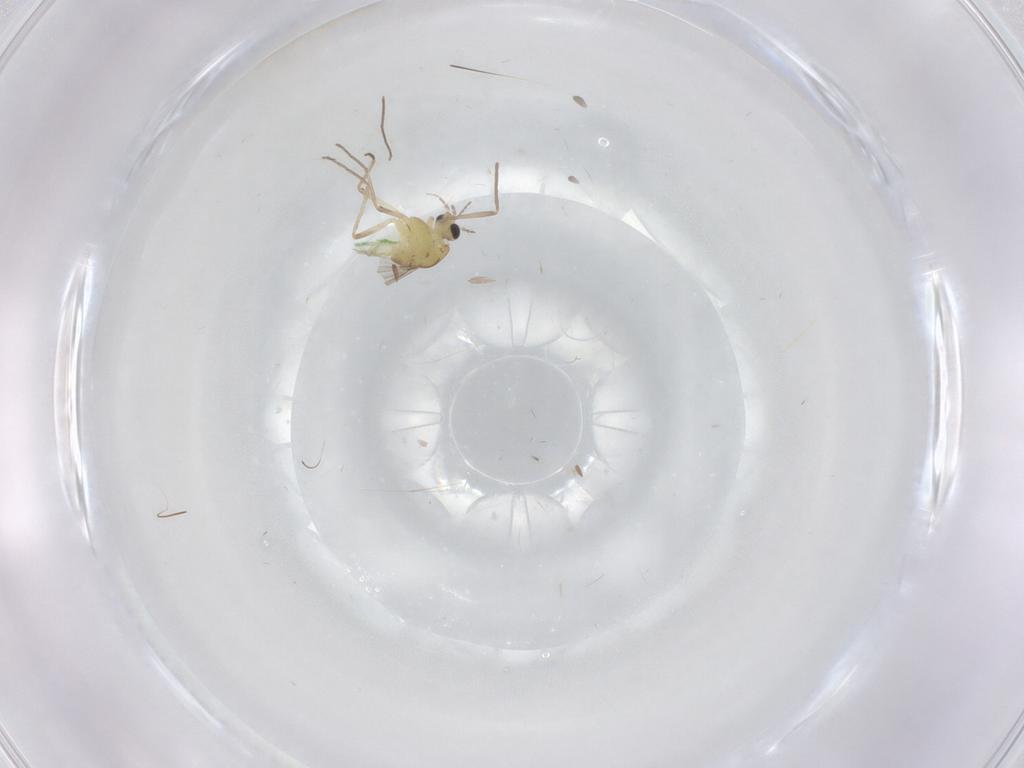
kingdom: Animalia
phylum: Arthropoda
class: Insecta
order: Diptera
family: Chironomidae
